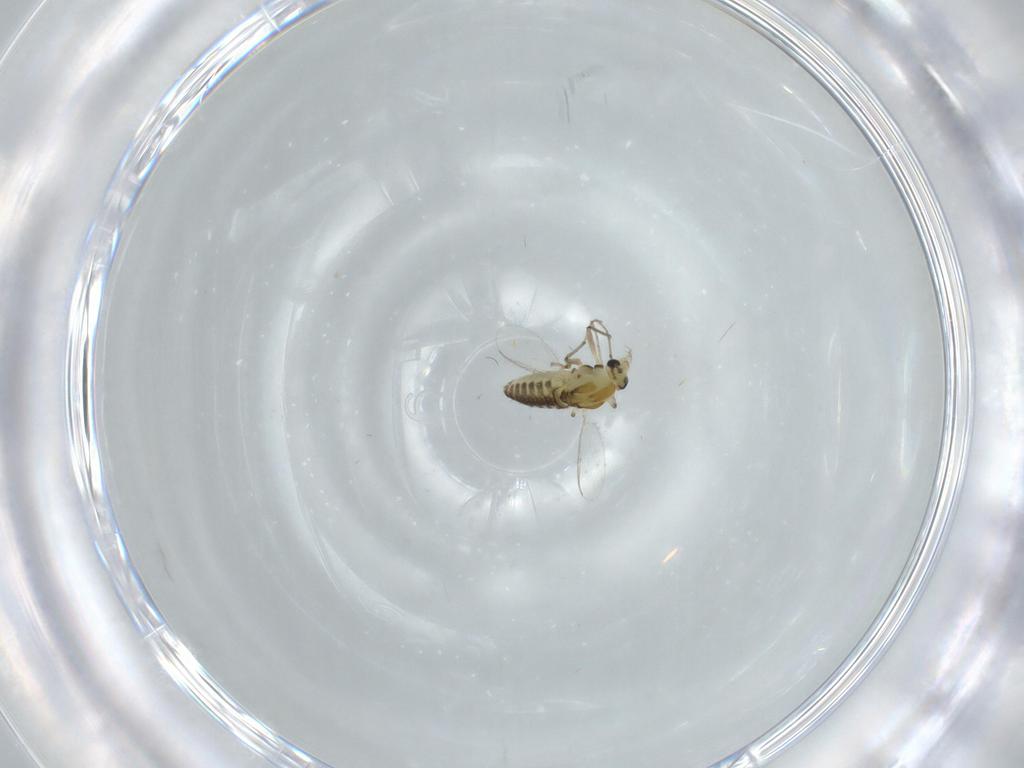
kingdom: Animalia
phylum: Arthropoda
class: Insecta
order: Diptera
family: Chironomidae
